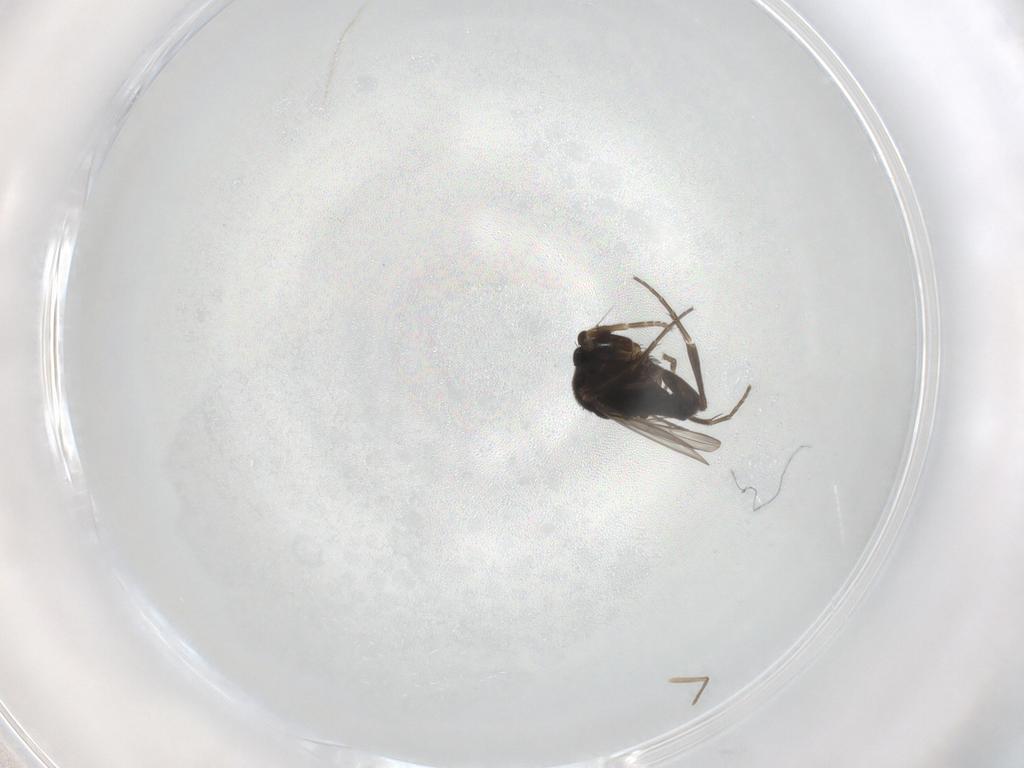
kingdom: Animalia
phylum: Arthropoda
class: Insecta
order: Diptera
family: Phoridae
